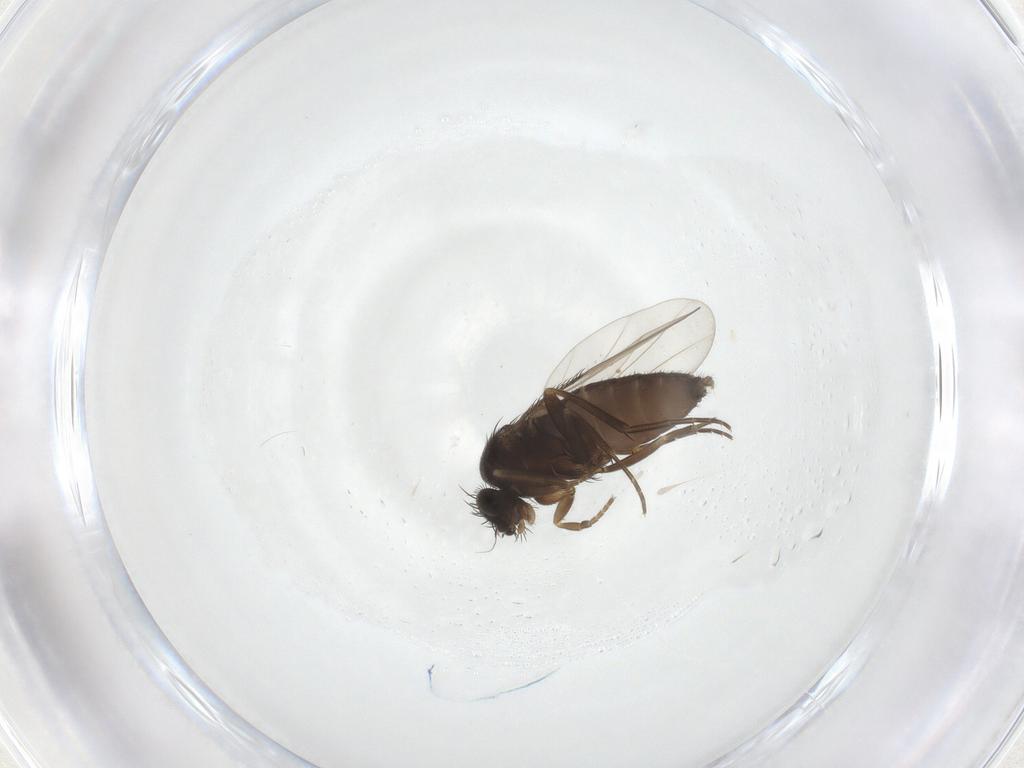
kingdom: Animalia
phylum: Arthropoda
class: Insecta
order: Diptera
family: Phoridae
